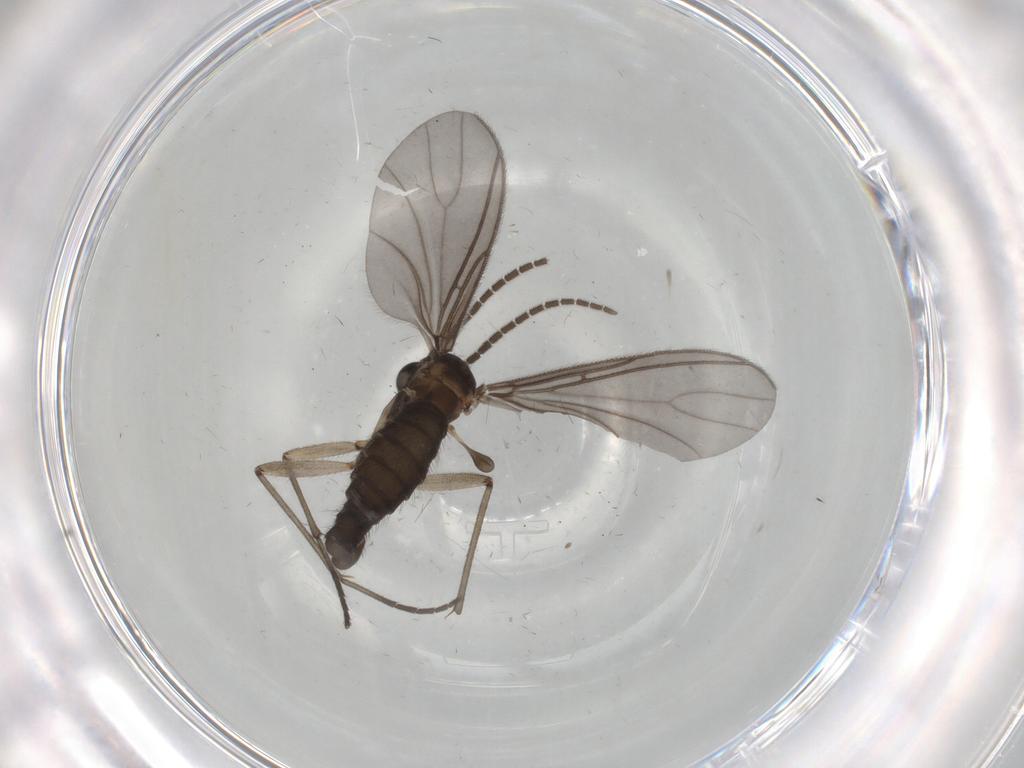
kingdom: Animalia
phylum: Arthropoda
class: Insecta
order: Diptera
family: Sciaridae
